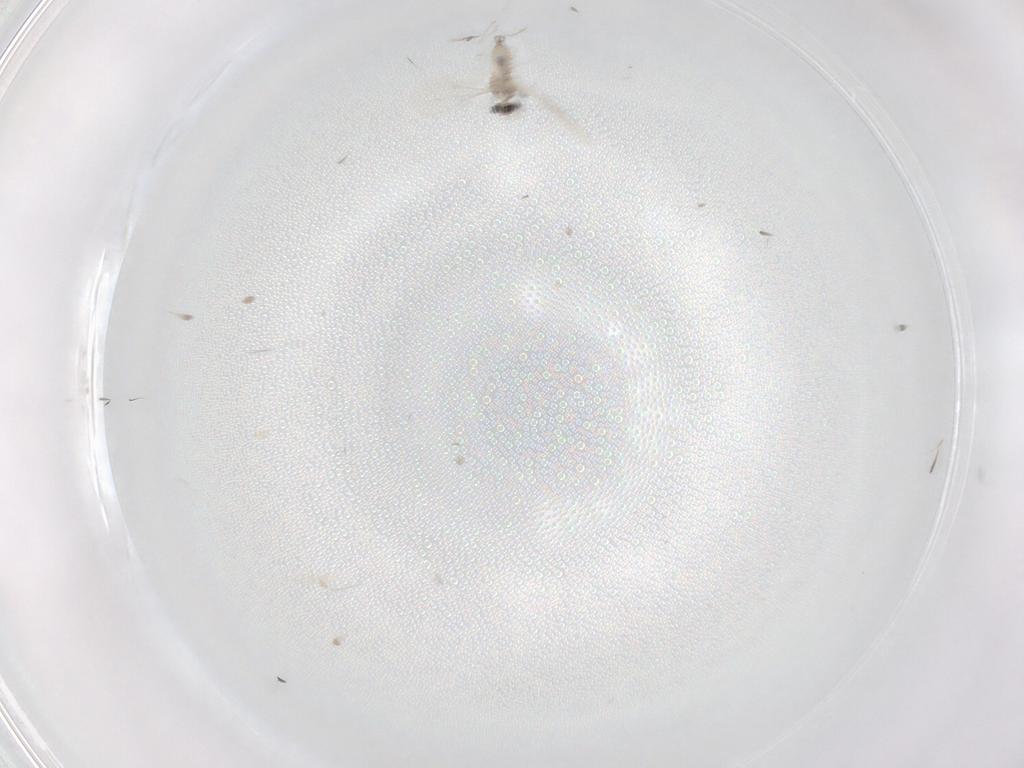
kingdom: Animalia
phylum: Arthropoda
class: Insecta
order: Diptera
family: Cecidomyiidae
